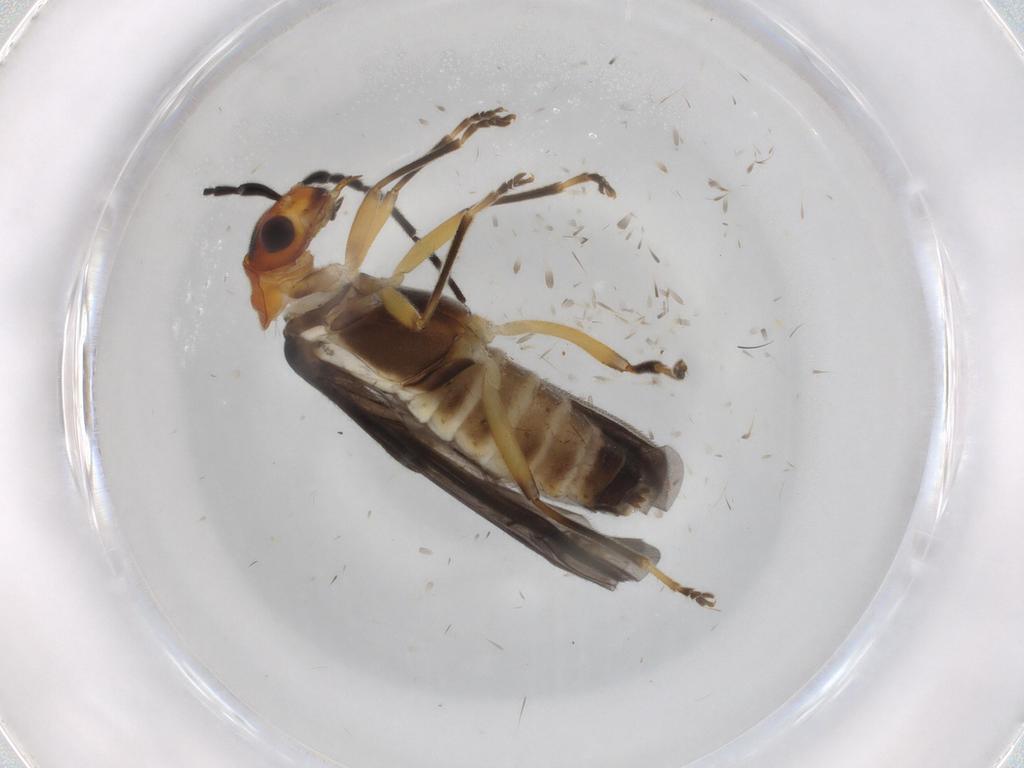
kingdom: Animalia
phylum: Arthropoda
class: Insecta
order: Coleoptera
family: Cantharidae
